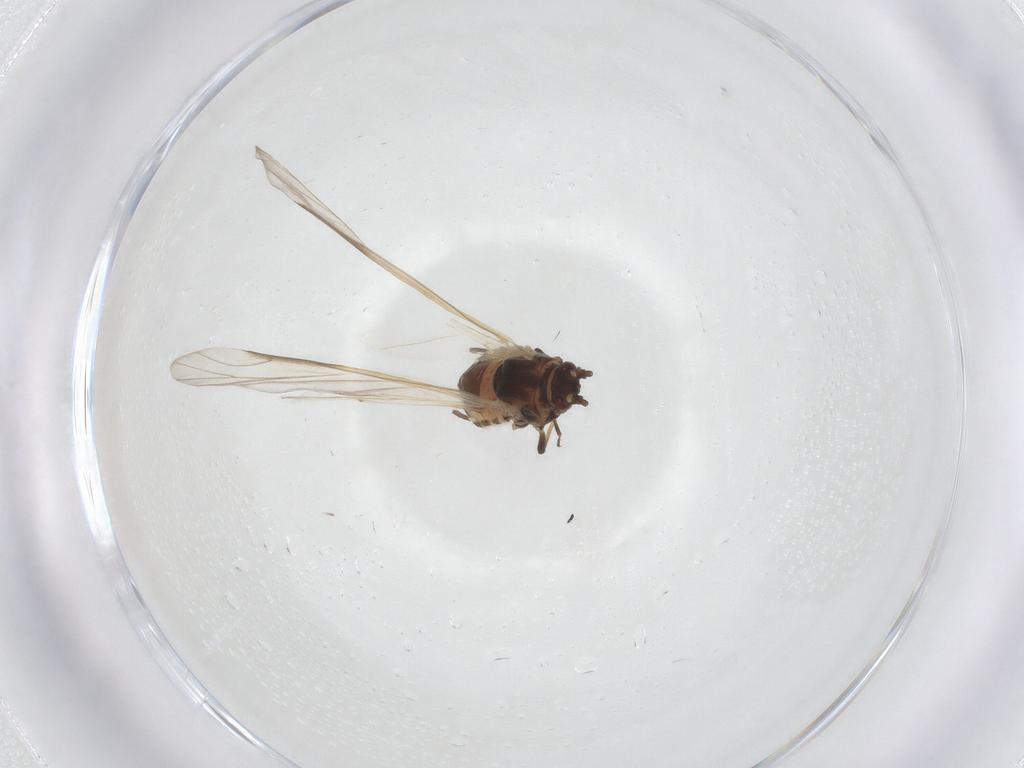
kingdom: Animalia
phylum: Arthropoda
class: Insecta
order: Hemiptera
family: Aphididae
